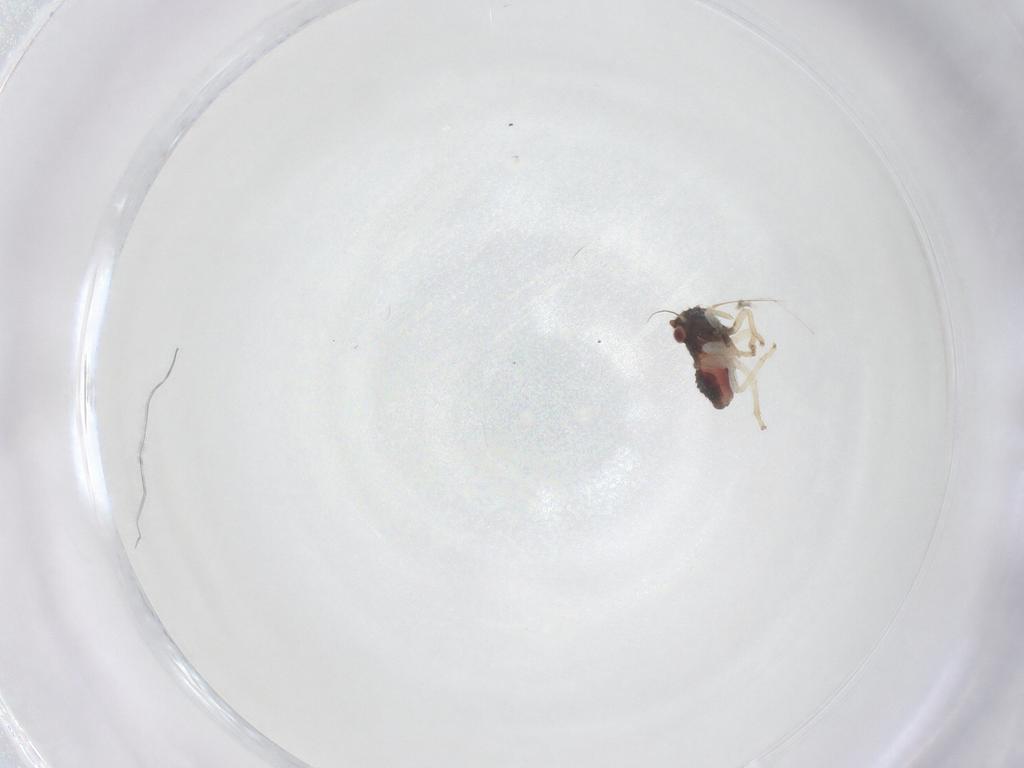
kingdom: Animalia
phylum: Arthropoda
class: Insecta
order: Hemiptera
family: Cicadellidae
